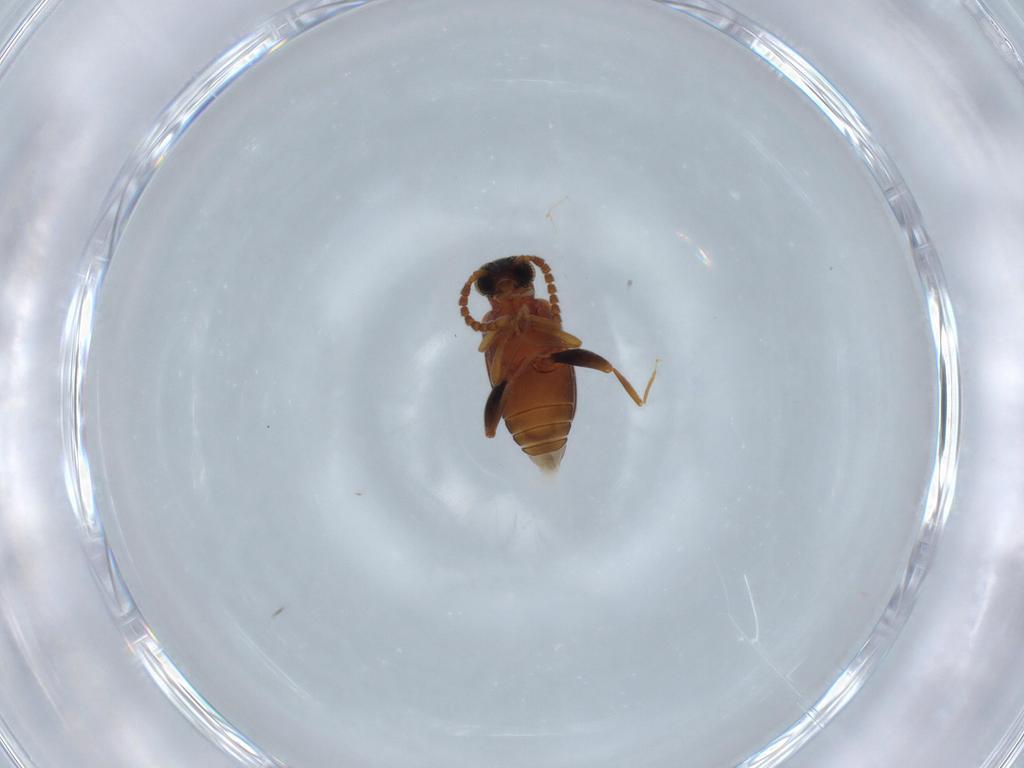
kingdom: Animalia
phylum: Arthropoda
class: Insecta
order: Coleoptera
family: Aderidae
